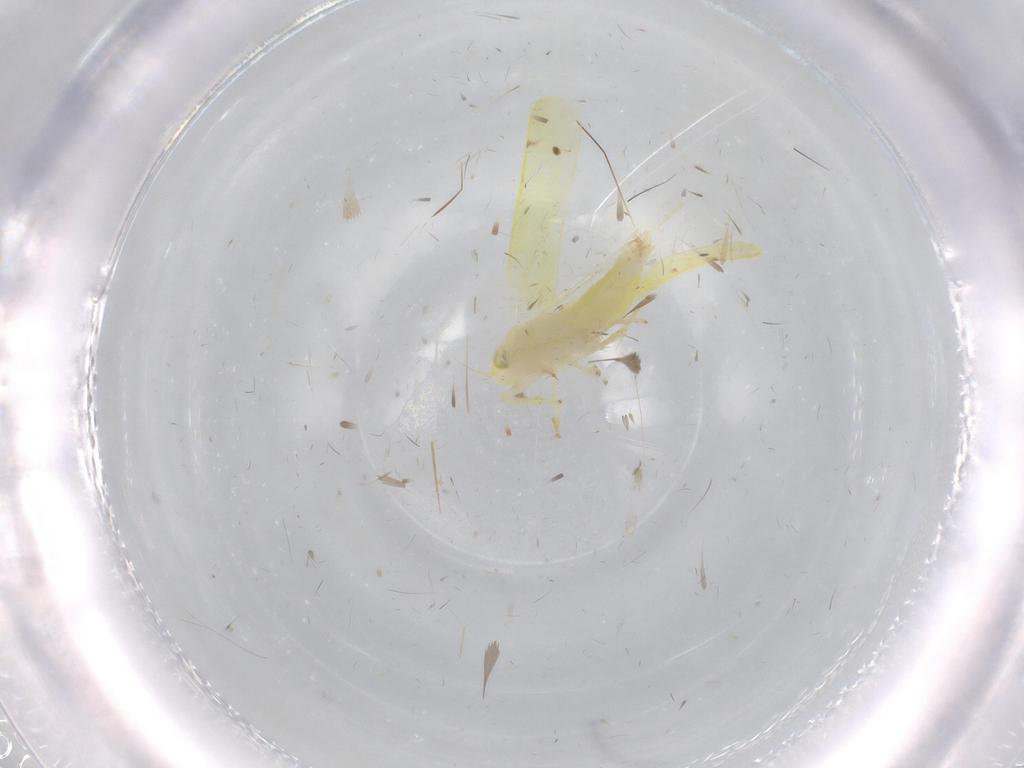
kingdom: Animalia
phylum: Arthropoda
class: Insecta
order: Hemiptera
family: Cicadellidae
